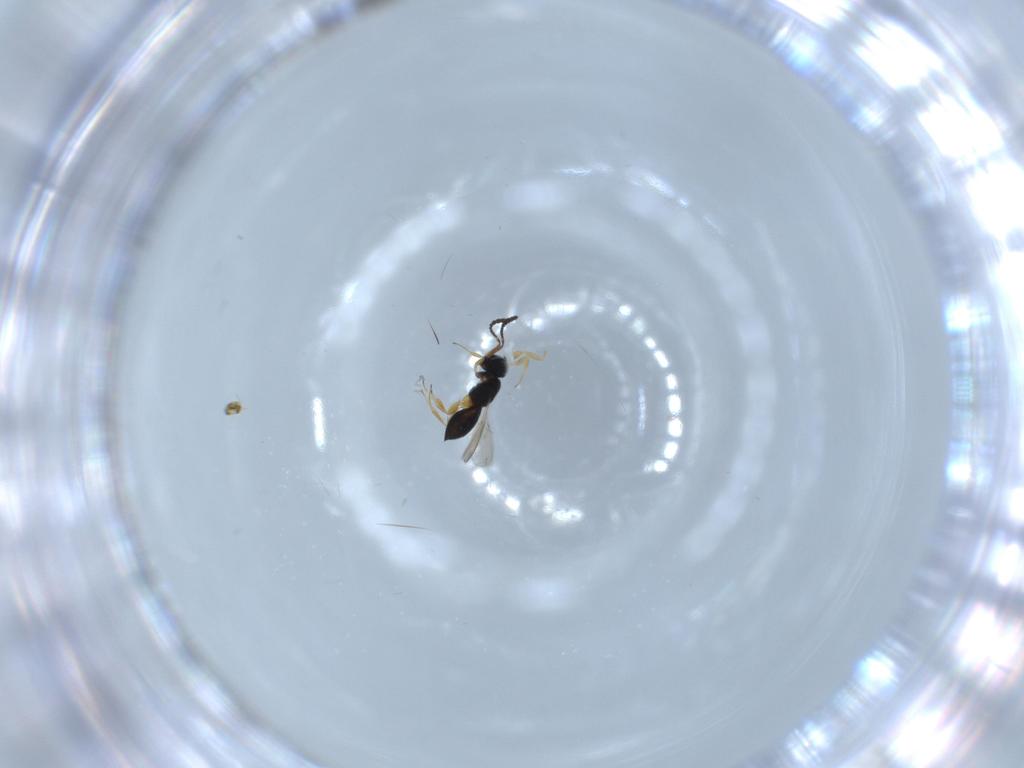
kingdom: Animalia
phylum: Arthropoda
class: Insecta
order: Hymenoptera
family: Scelionidae
